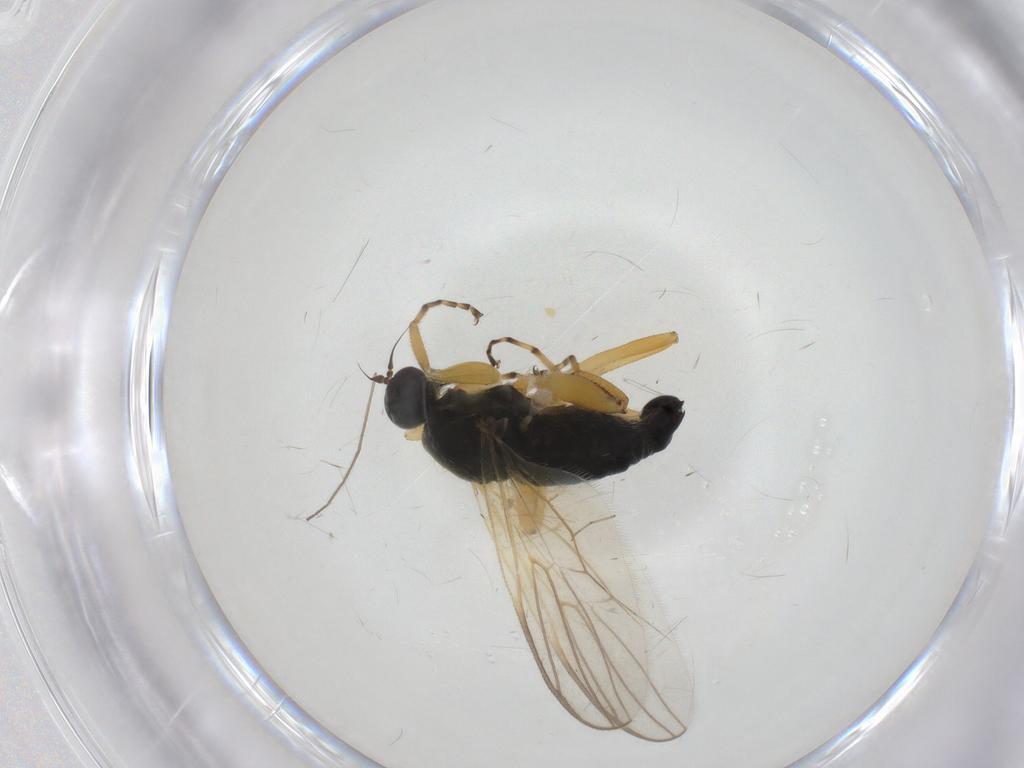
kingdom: Animalia
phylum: Arthropoda
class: Insecta
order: Diptera
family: Hybotidae
